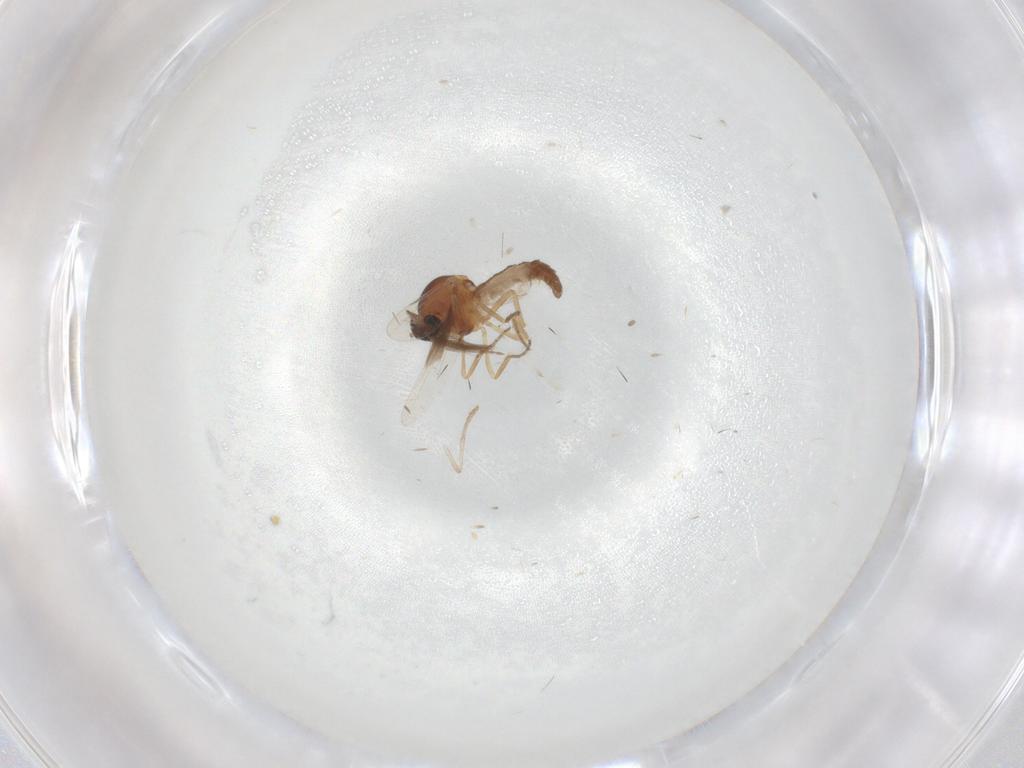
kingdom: Animalia
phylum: Arthropoda
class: Insecta
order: Diptera
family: Ceratopogonidae
